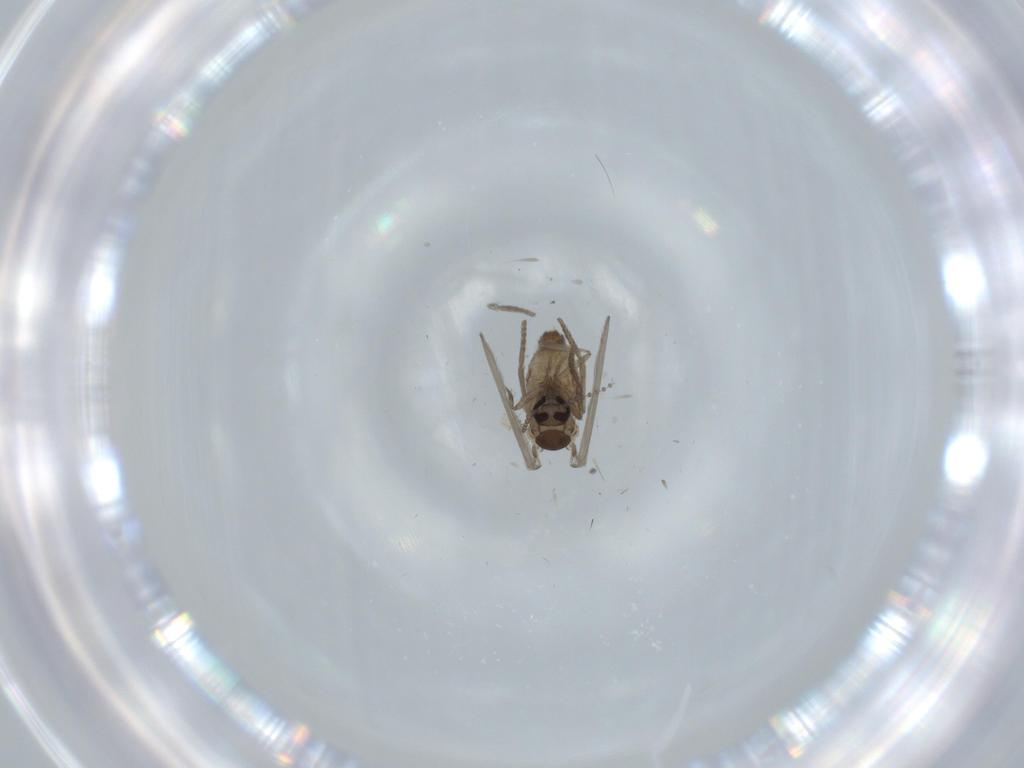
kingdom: Animalia
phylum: Arthropoda
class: Insecta
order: Diptera
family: Psychodidae
